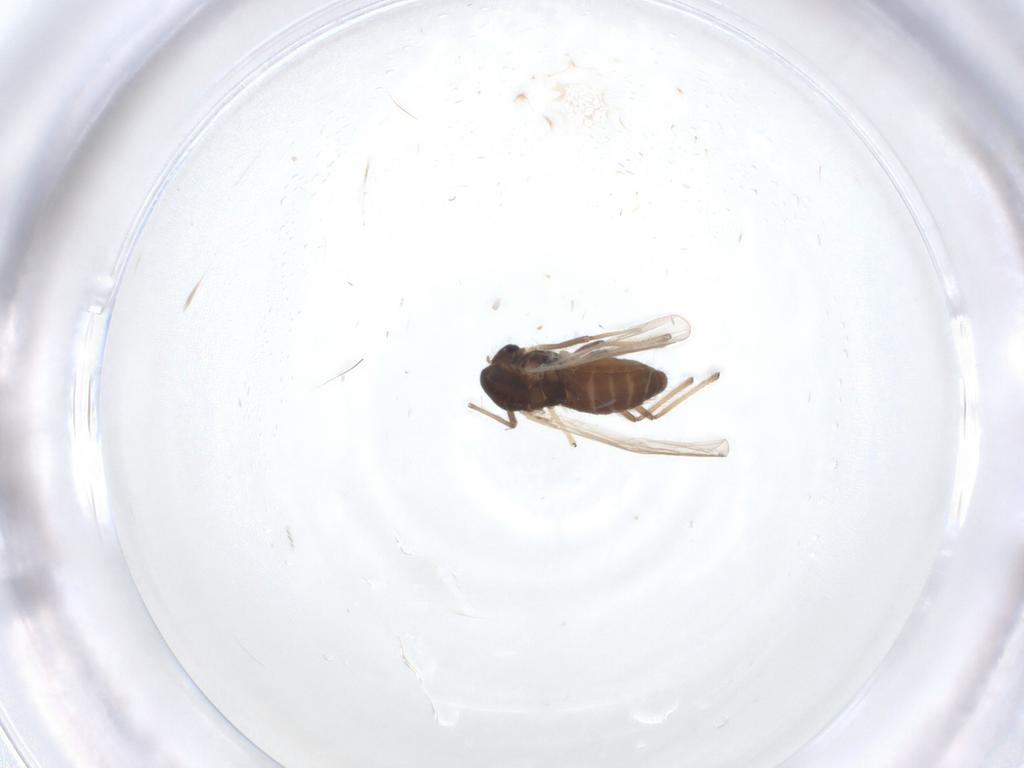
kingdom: Animalia
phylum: Arthropoda
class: Insecta
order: Diptera
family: Chironomidae
